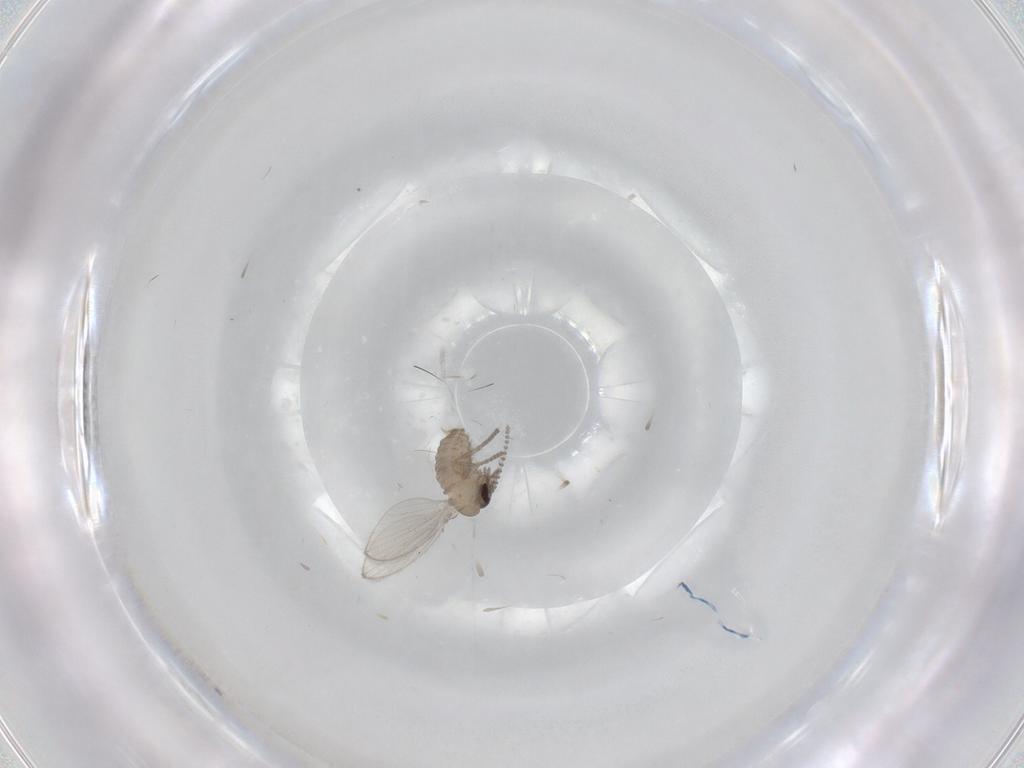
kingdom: Animalia
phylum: Arthropoda
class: Insecta
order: Diptera
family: Psychodidae
